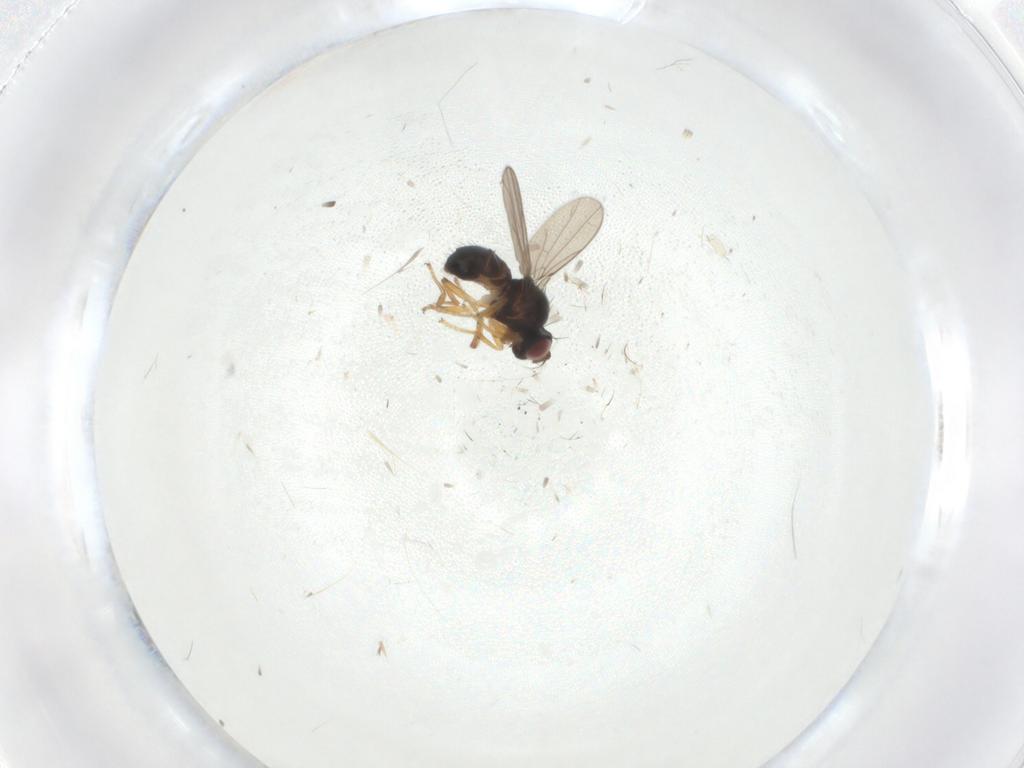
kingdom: Animalia
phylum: Arthropoda
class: Insecta
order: Diptera
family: Ephydridae
